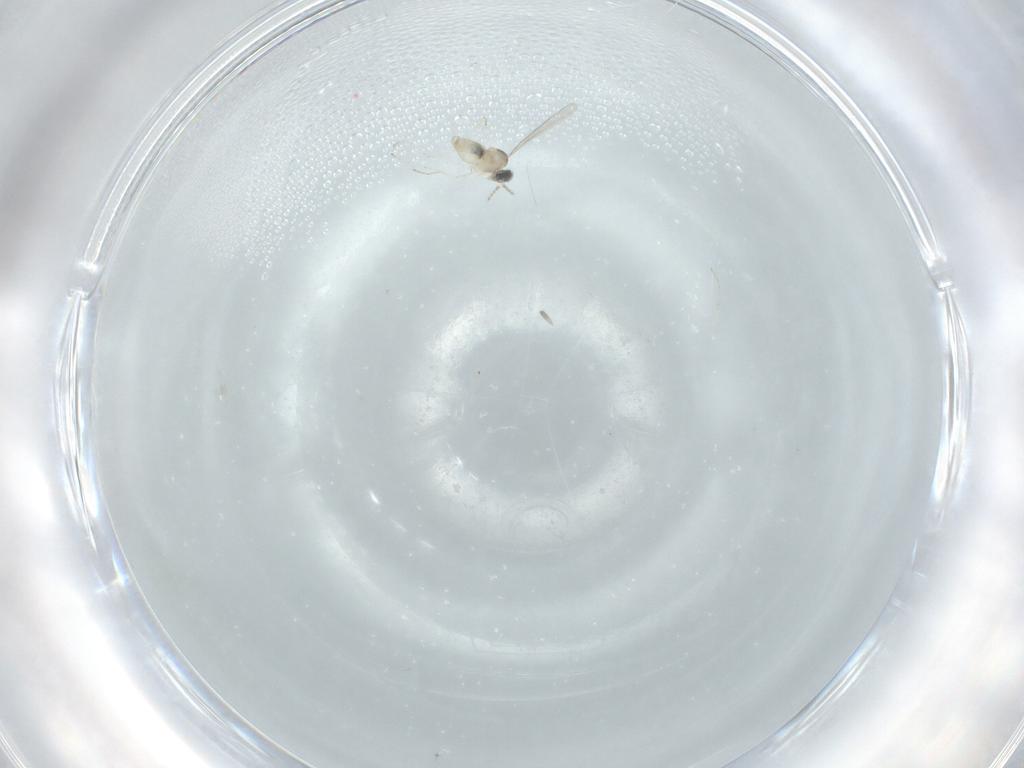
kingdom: Animalia
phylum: Arthropoda
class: Insecta
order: Diptera
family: Cecidomyiidae
